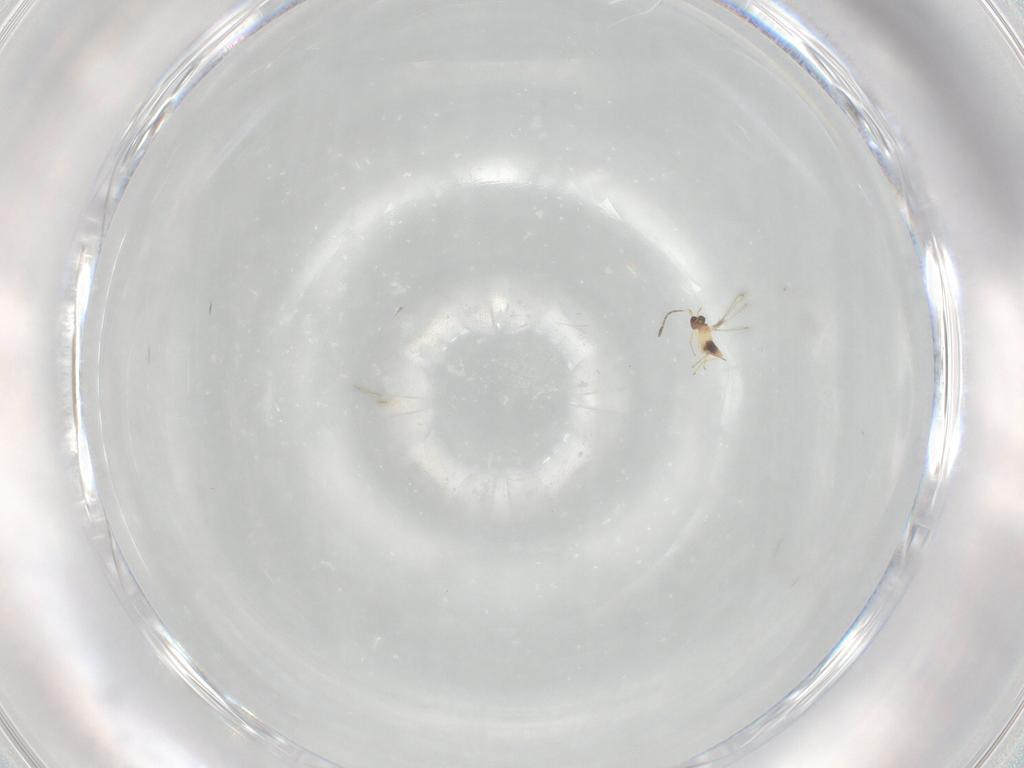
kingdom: Animalia
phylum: Arthropoda
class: Insecta
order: Hymenoptera
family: Mymaridae
